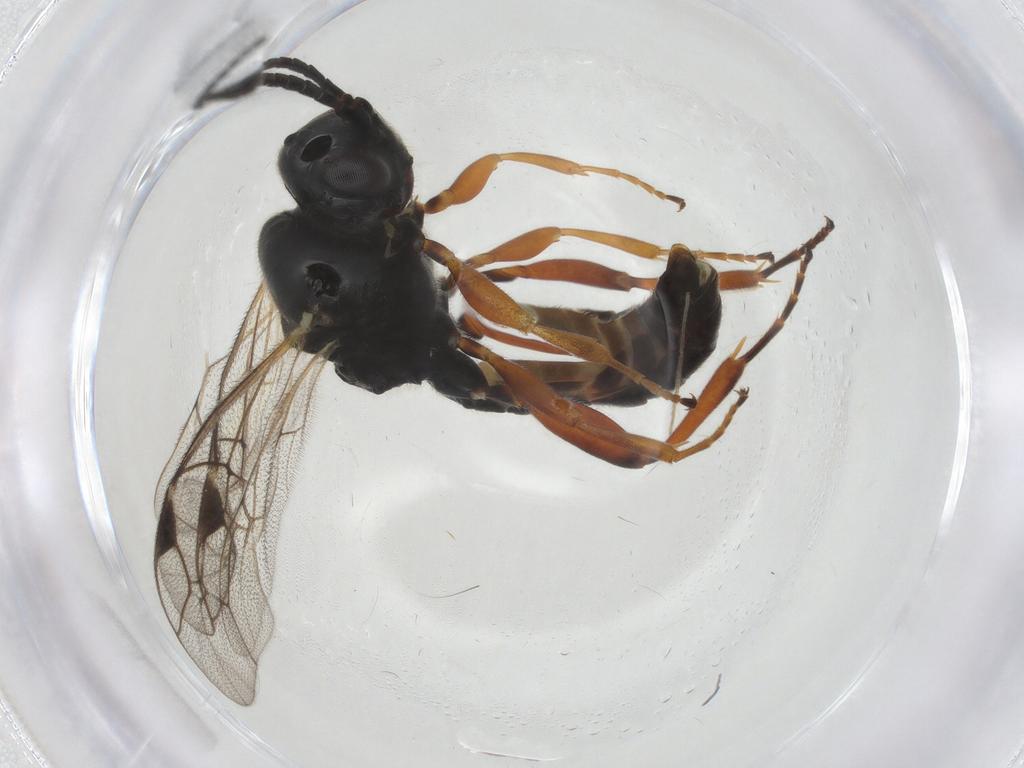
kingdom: Animalia
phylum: Arthropoda
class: Insecta
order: Hymenoptera
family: Ichneumonidae
